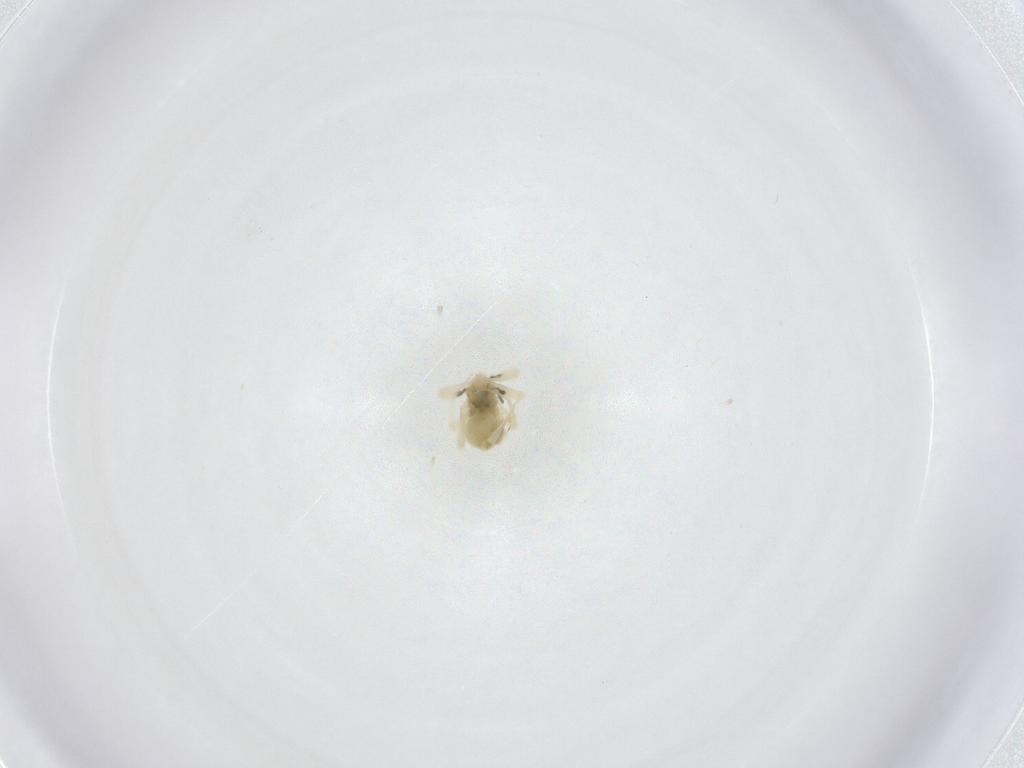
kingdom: Animalia
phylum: Arthropoda
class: Arachnida
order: Trombidiformes
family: Anystidae
